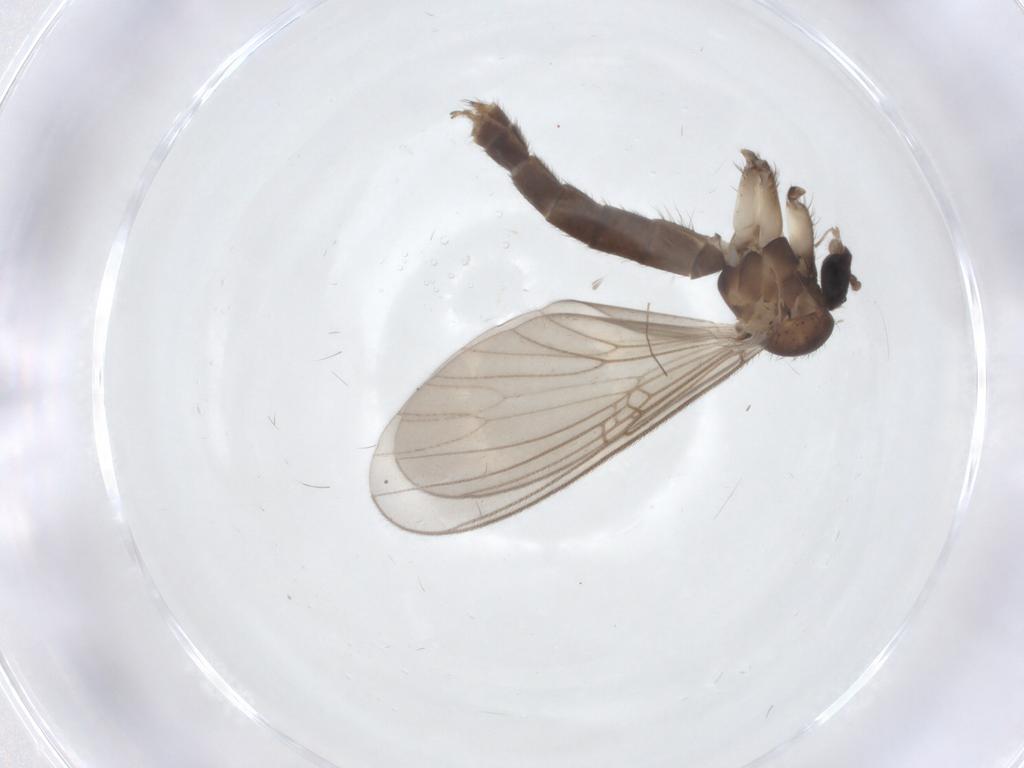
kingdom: Animalia
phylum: Arthropoda
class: Insecta
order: Diptera
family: Mycetophilidae
